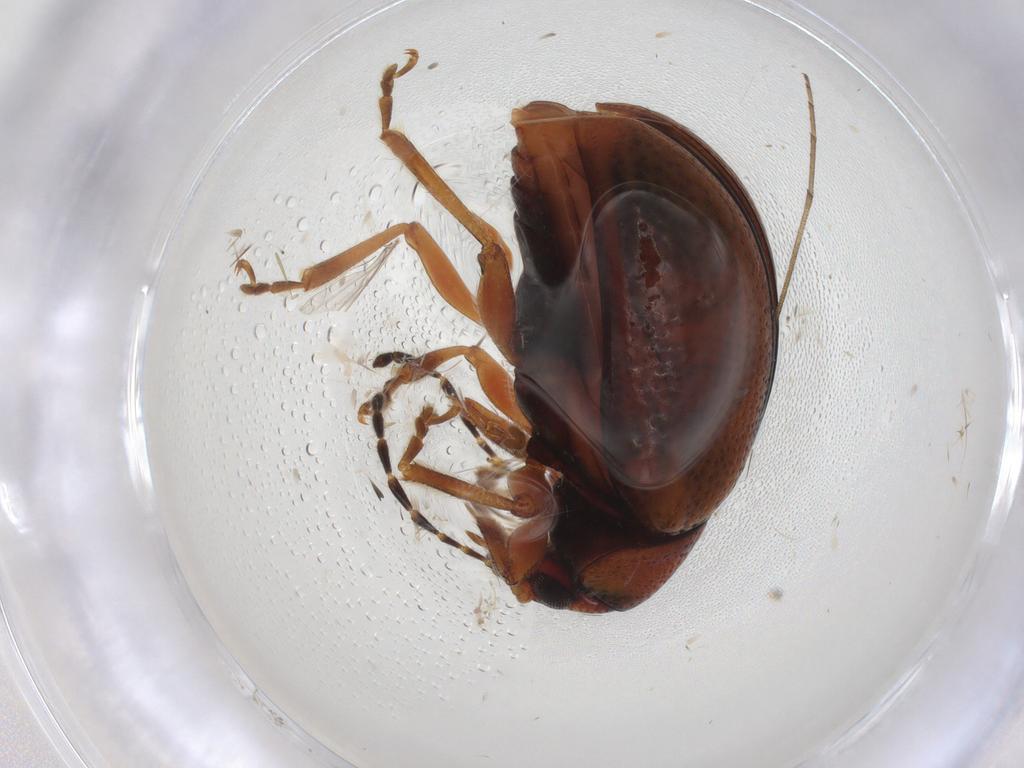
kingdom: Animalia
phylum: Arthropoda
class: Insecta
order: Coleoptera
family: Chrysomelidae
